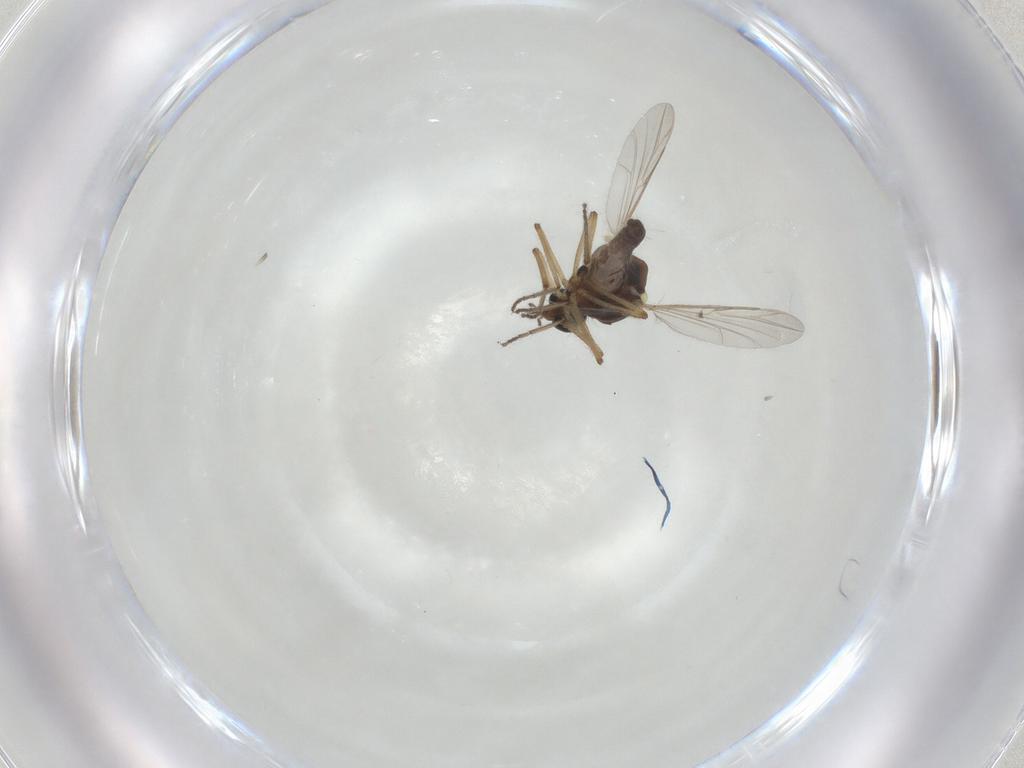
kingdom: Animalia
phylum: Arthropoda
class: Insecta
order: Diptera
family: Ceratopogonidae
